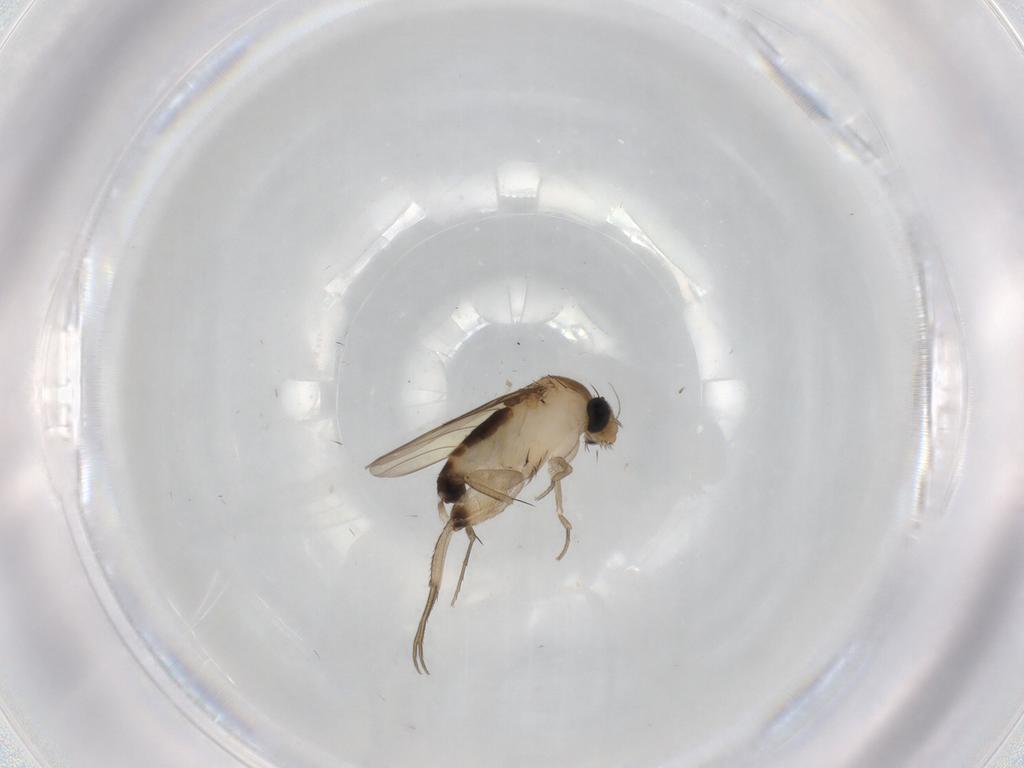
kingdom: Animalia
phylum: Arthropoda
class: Insecta
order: Diptera
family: Phoridae
